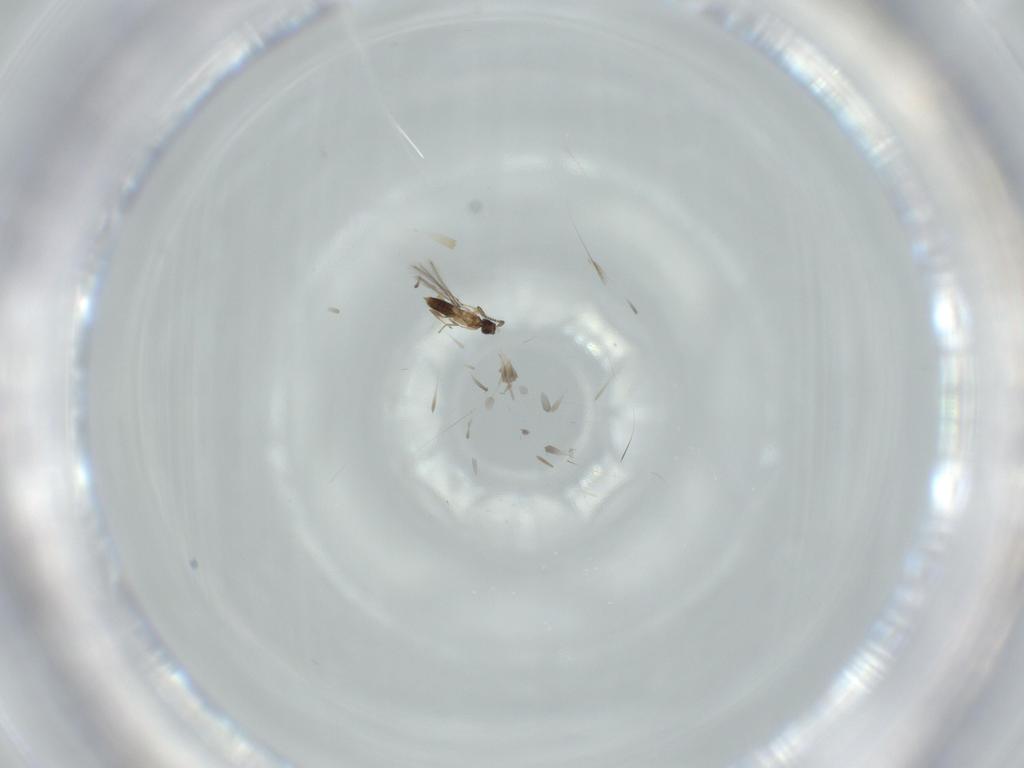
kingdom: Animalia
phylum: Arthropoda
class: Insecta
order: Hymenoptera
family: Mymaridae
